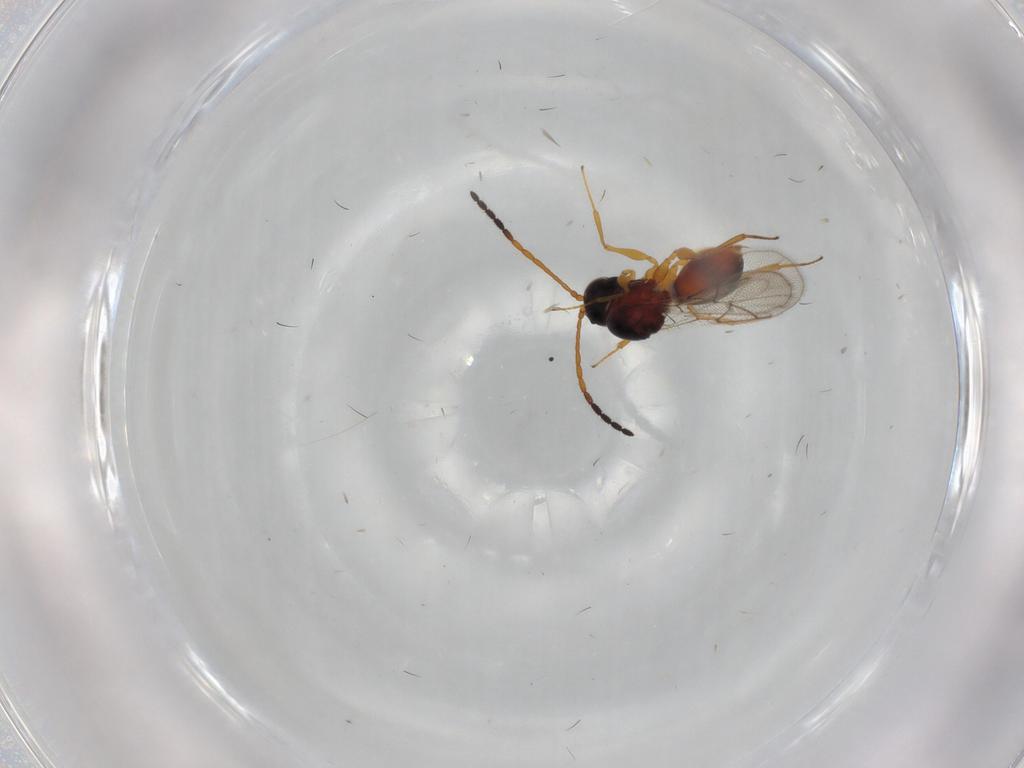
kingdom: Animalia
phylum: Arthropoda
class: Insecta
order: Hymenoptera
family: Figitidae
